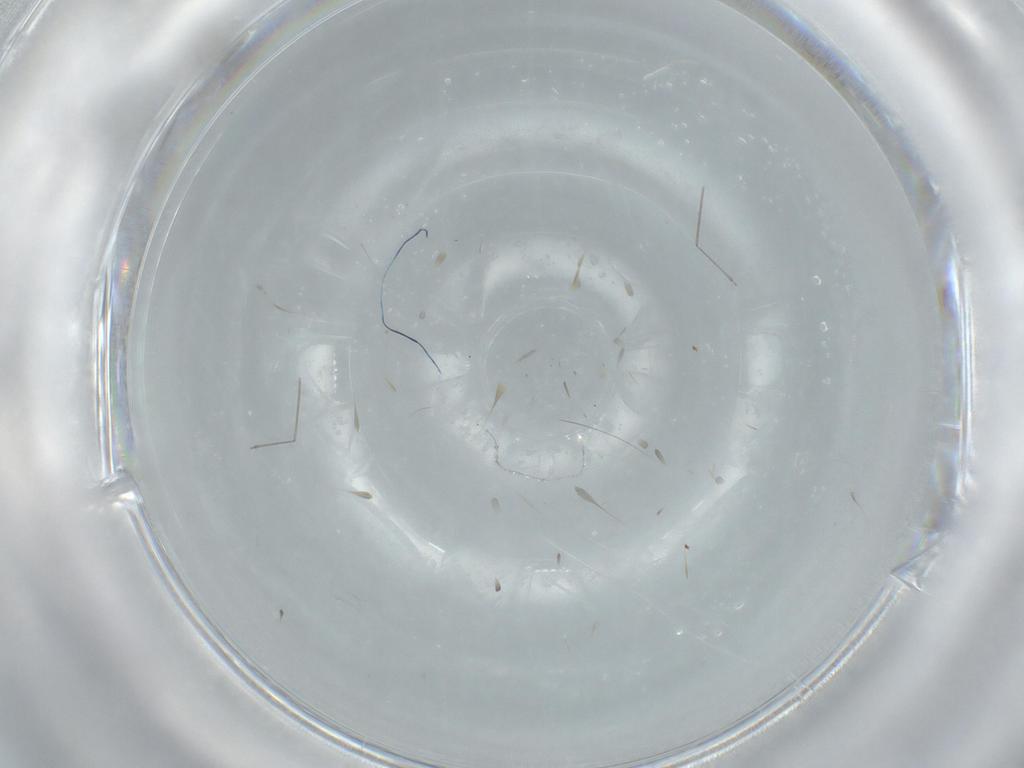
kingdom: Animalia
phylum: Arthropoda
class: Insecta
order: Diptera
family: Cecidomyiidae
